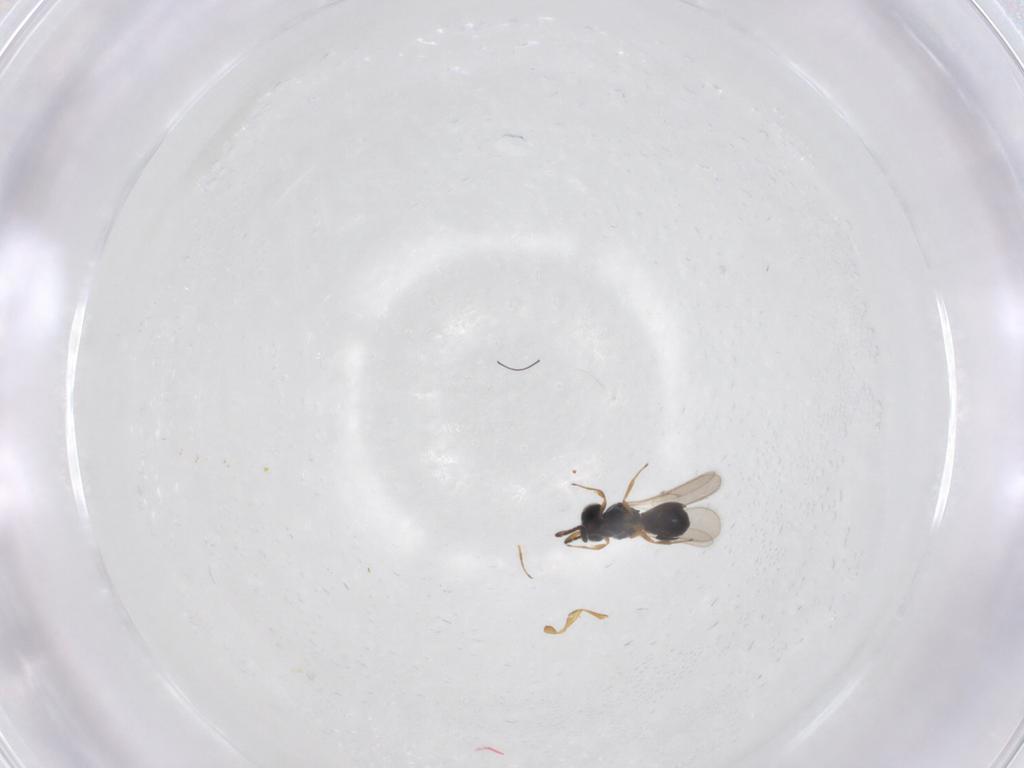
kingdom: Animalia
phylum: Arthropoda
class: Insecta
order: Hymenoptera
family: Scelionidae
